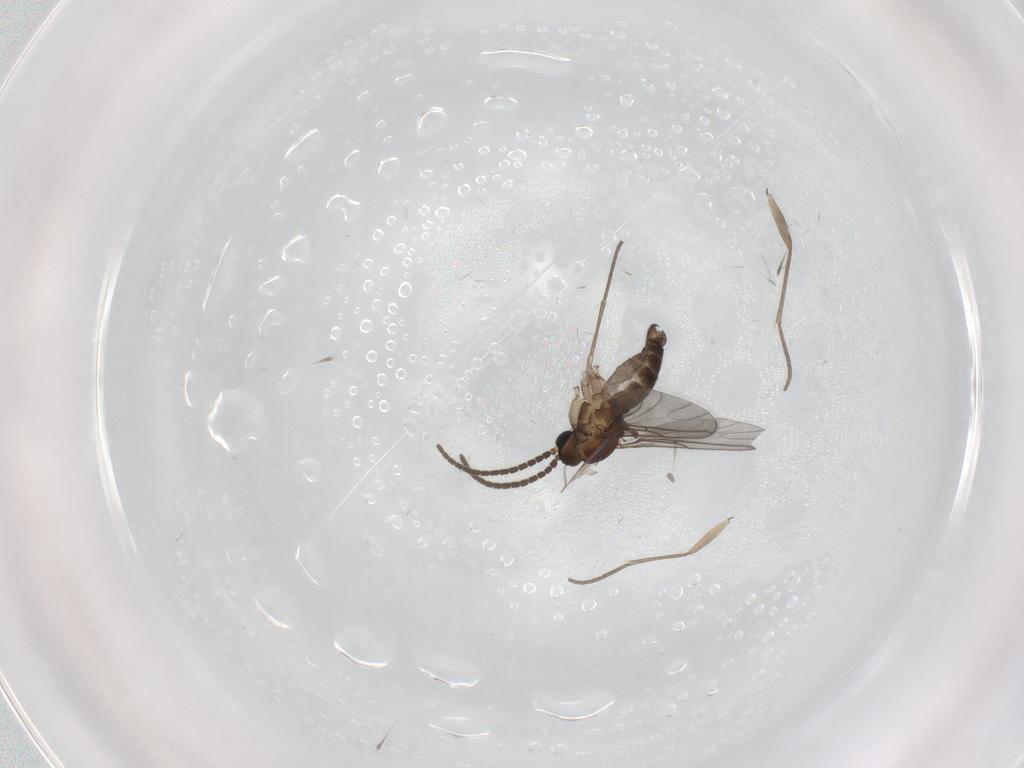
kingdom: Animalia
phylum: Arthropoda
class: Insecta
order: Diptera
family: Sciaridae
